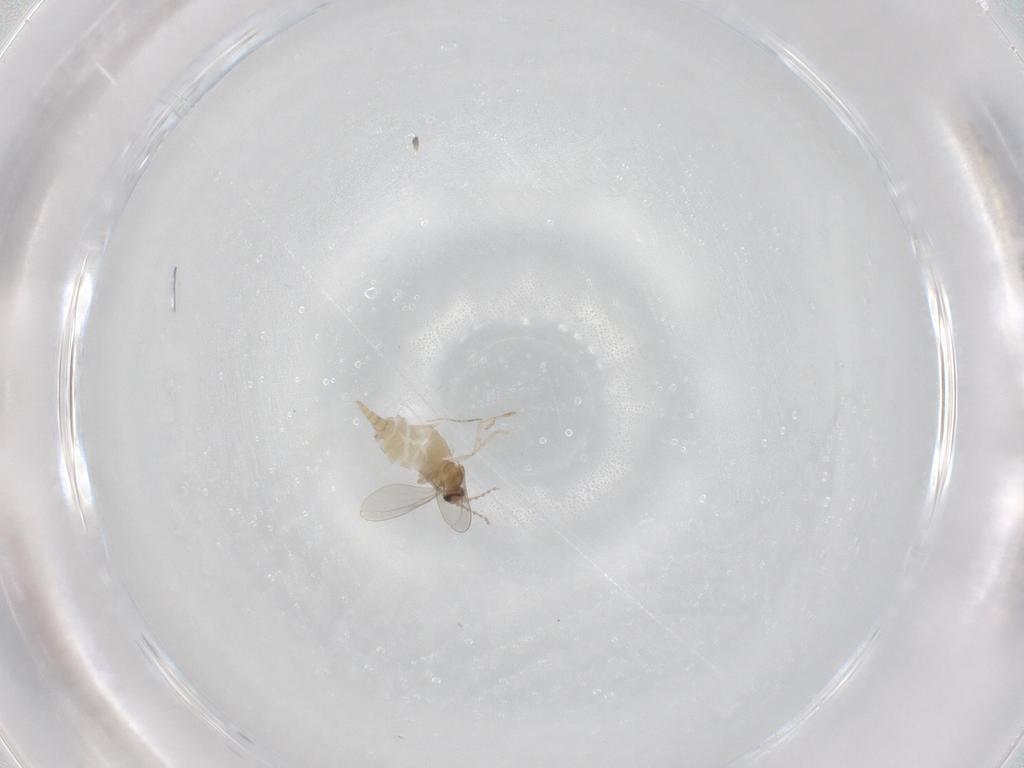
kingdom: Animalia
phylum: Arthropoda
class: Insecta
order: Diptera
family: Cecidomyiidae
